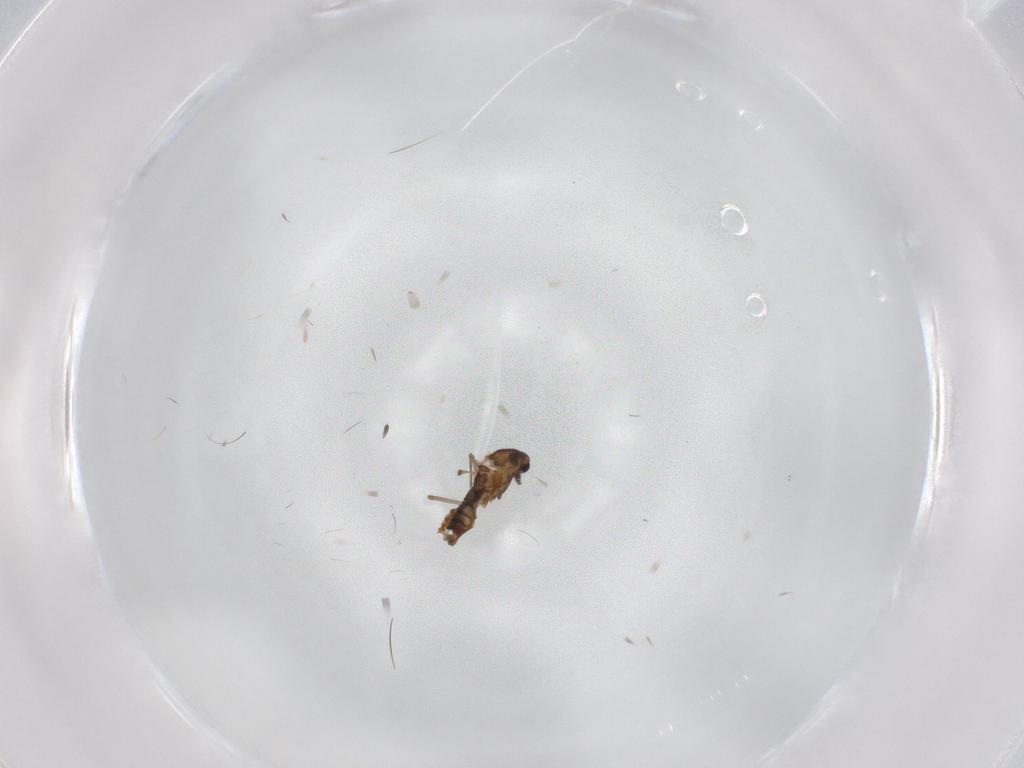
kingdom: Animalia
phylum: Arthropoda
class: Insecta
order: Diptera
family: Chironomidae
